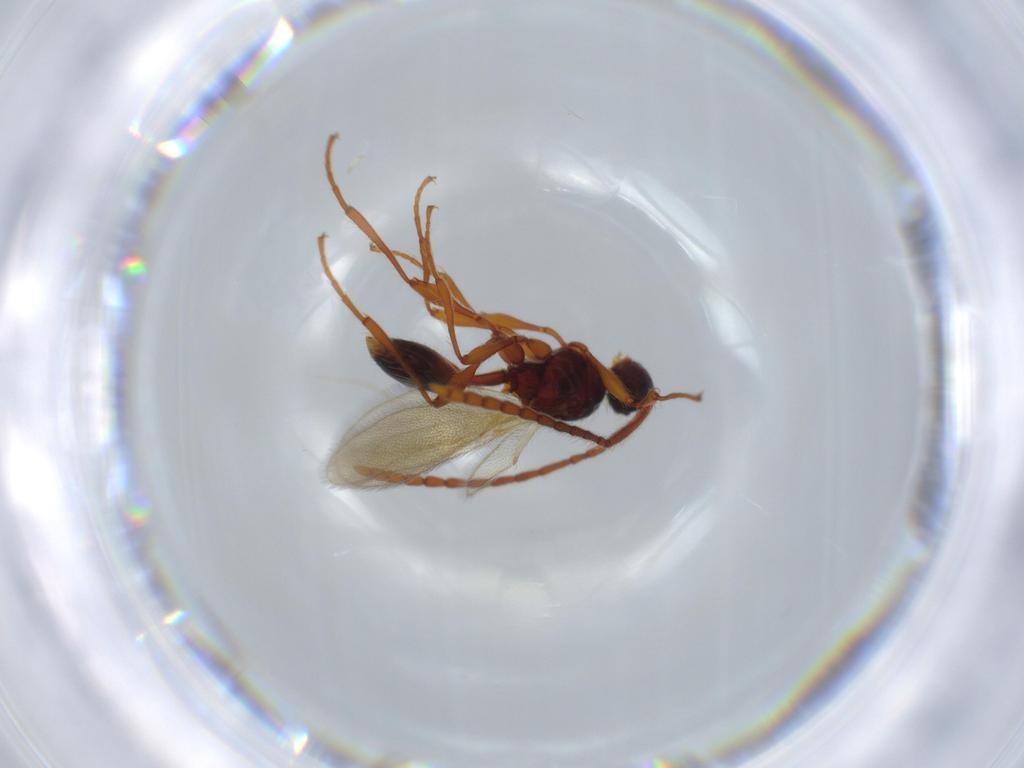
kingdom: Animalia
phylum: Arthropoda
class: Insecta
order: Hymenoptera
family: Diapriidae
